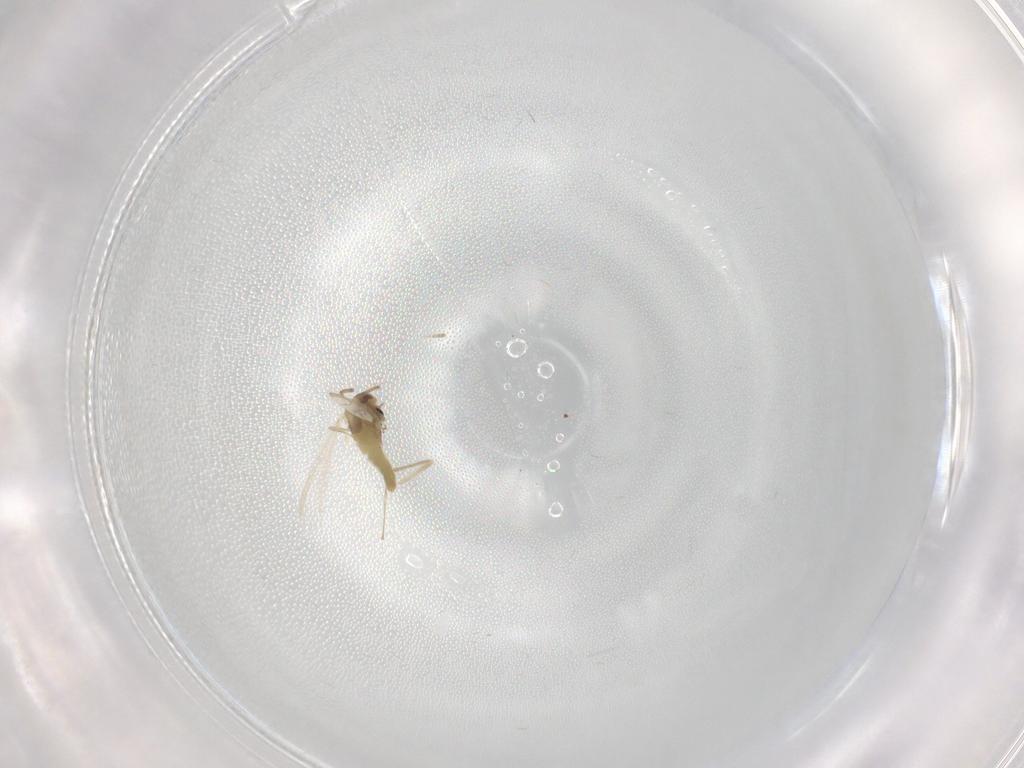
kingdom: Animalia
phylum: Arthropoda
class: Insecta
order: Diptera
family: Chironomidae
